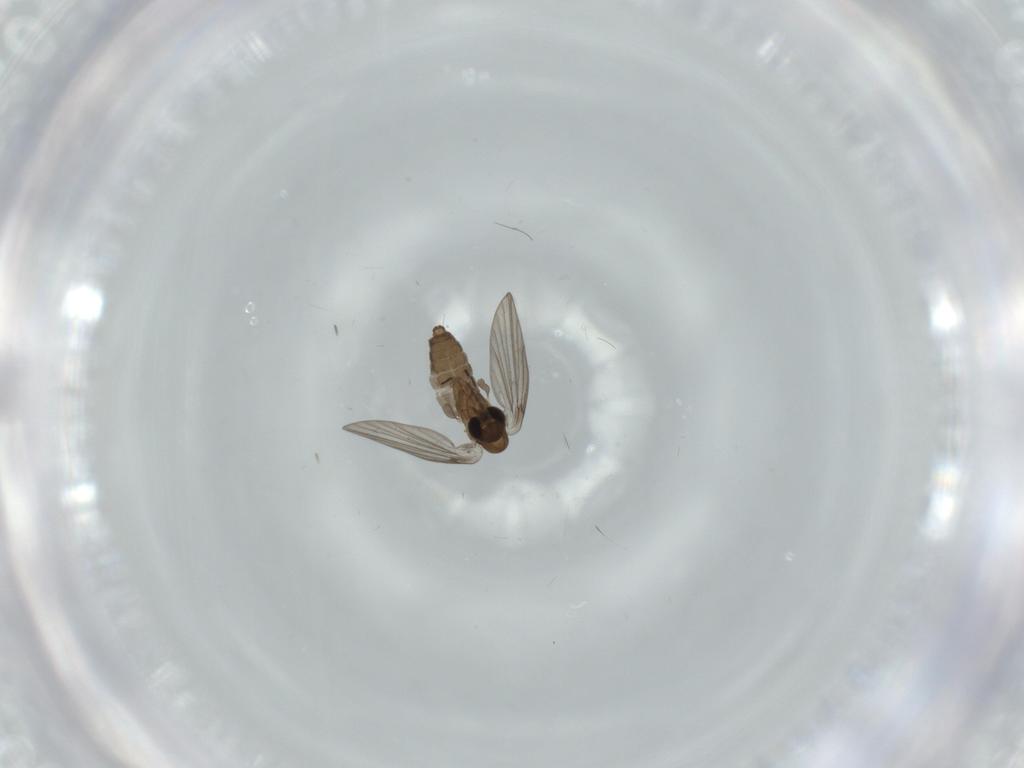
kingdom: Animalia
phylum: Arthropoda
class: Insecta
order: Diptera
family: Psychodidae
